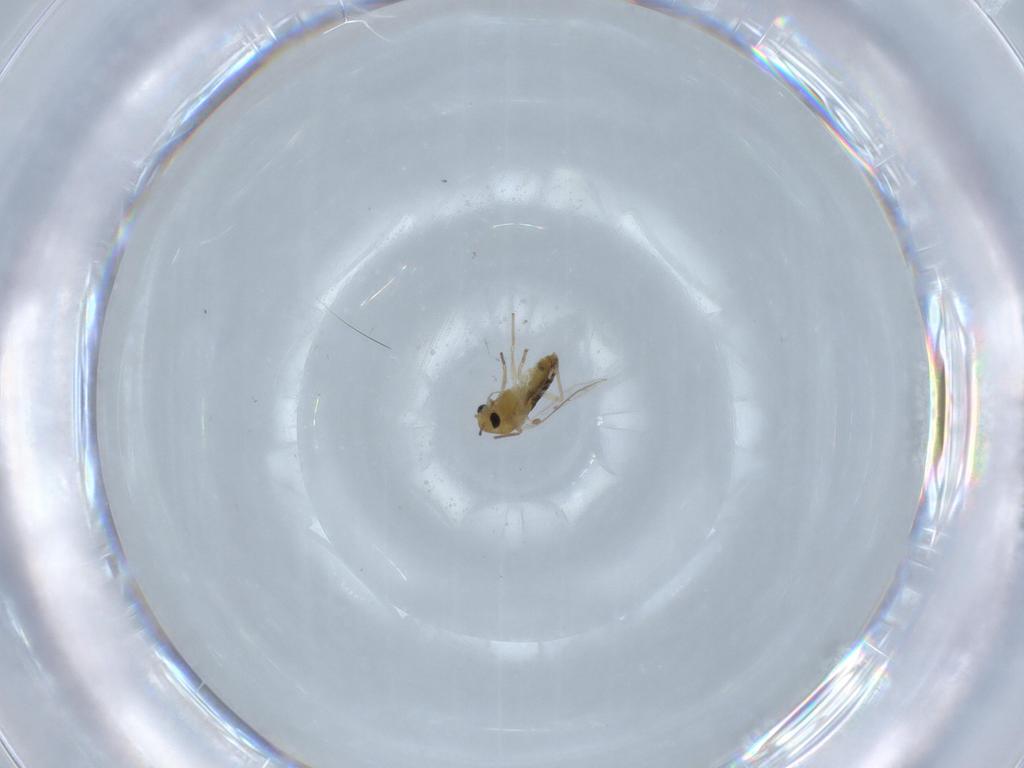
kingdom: Animalia
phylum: Arthropoda
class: Insecta
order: Diptera
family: Chironomidae
